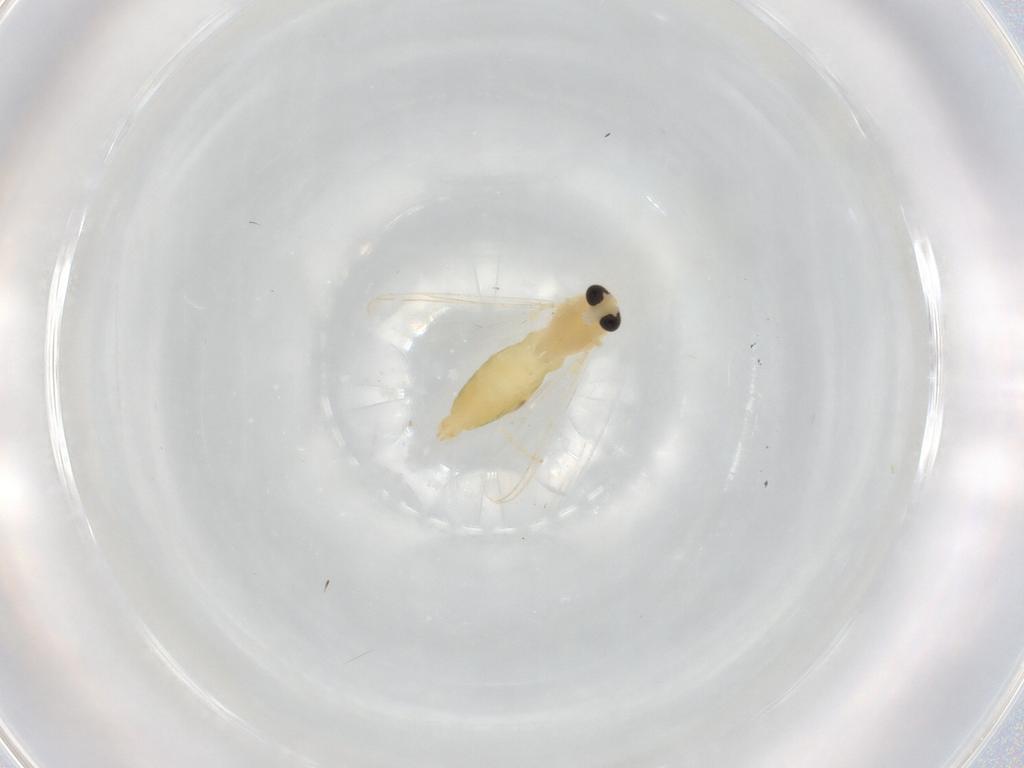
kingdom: Animalia
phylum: Arthropoda
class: Insecta
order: Diptera
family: Chironomidae
